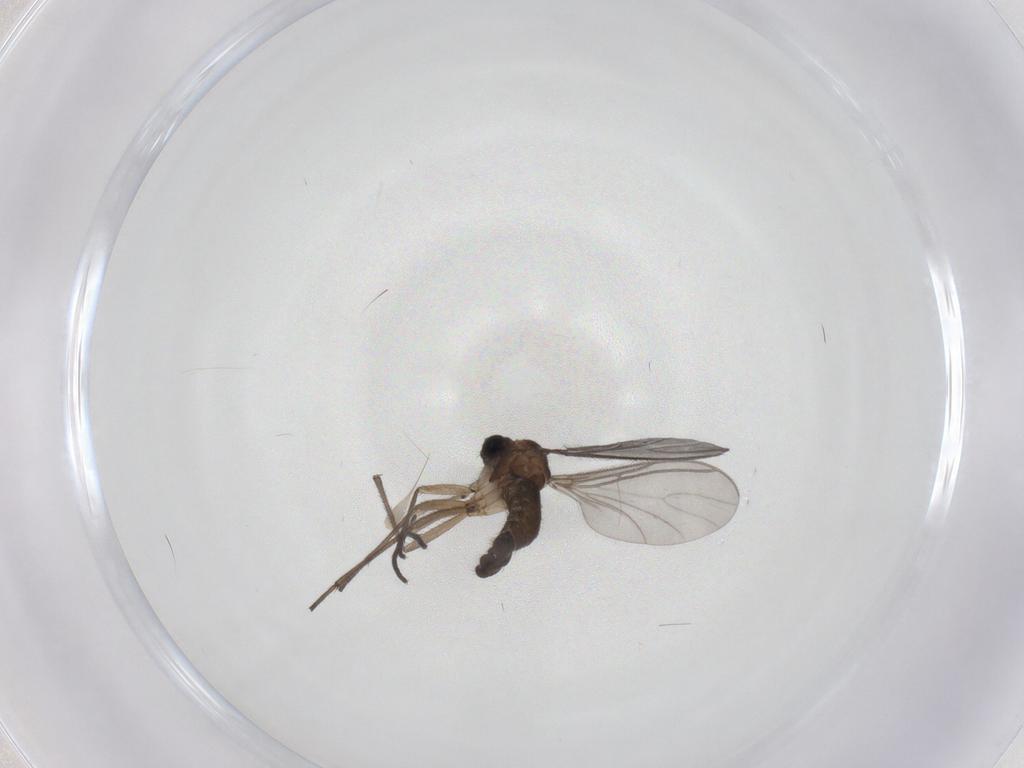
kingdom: Animalia
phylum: Arthropoda
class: Insecta
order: Diptera
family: Sciaridae
